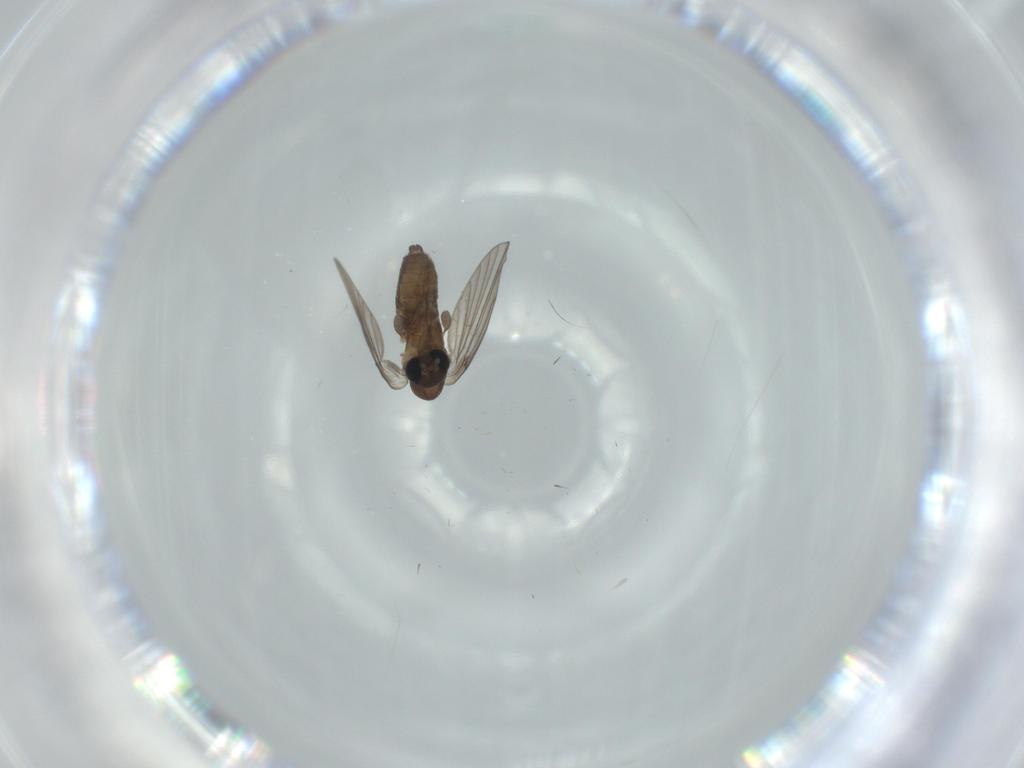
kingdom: Animalia
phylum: Arthropoda
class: Insecta
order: Diptera
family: Psychodidae
